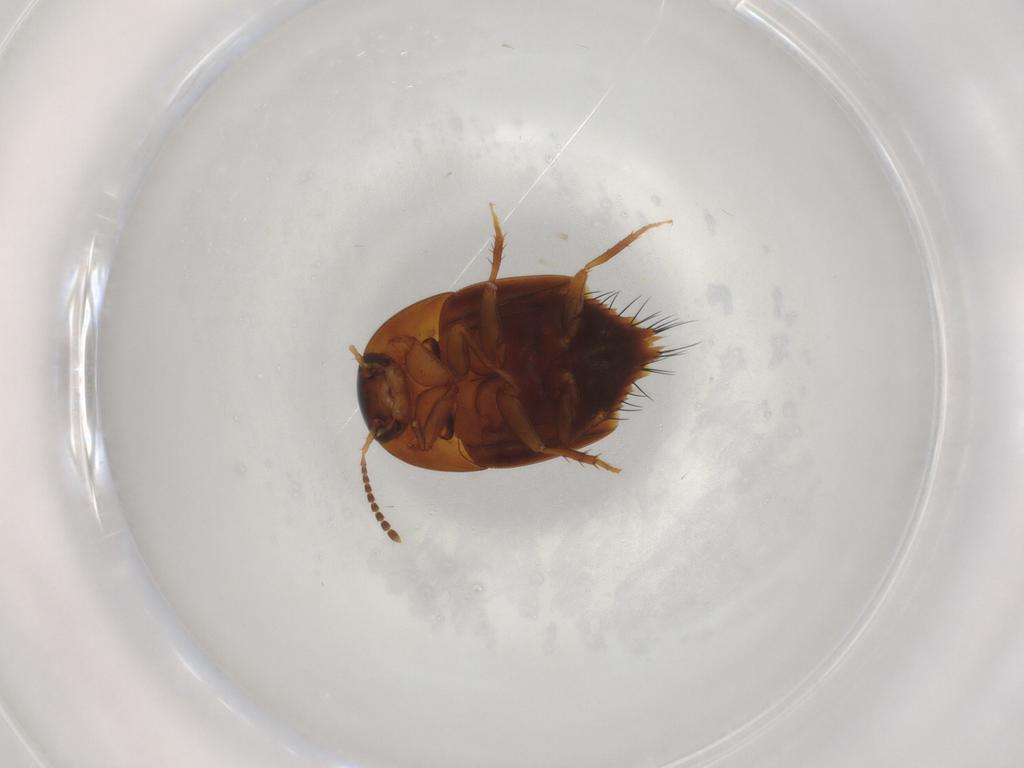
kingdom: Animalia
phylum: Arthropoda
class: Insecta
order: Coleoptera
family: Staphylinidae
